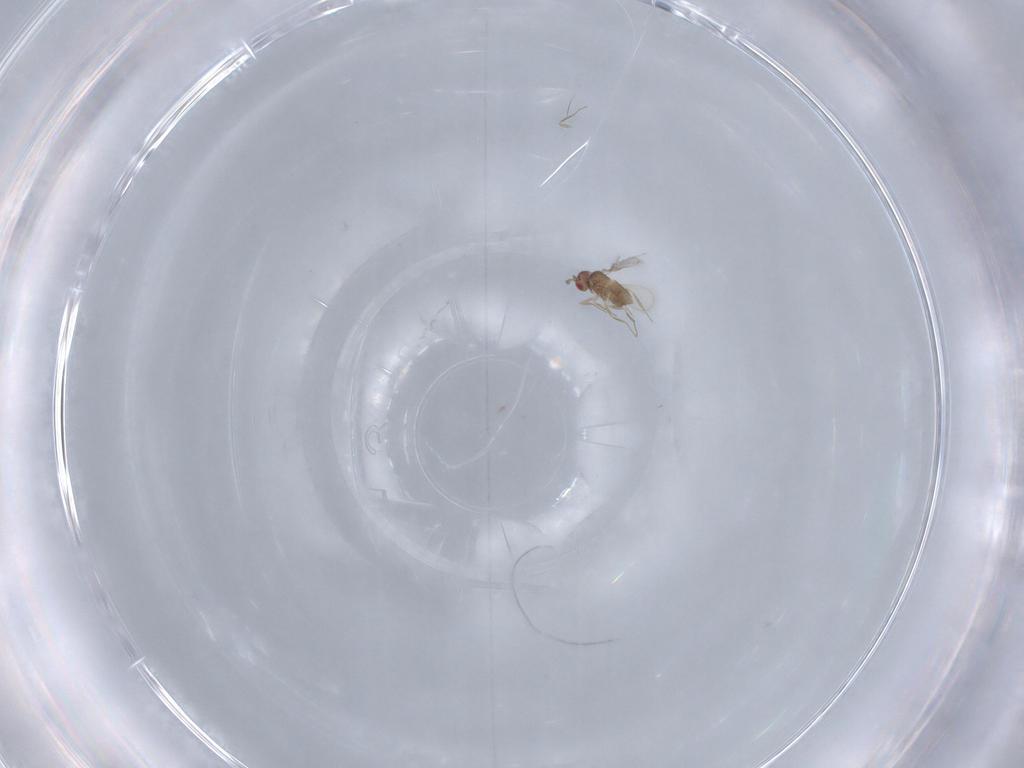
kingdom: Animalia
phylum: Arthropoda
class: Insecta
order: Hymenoptera
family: Trichogrammatidae
